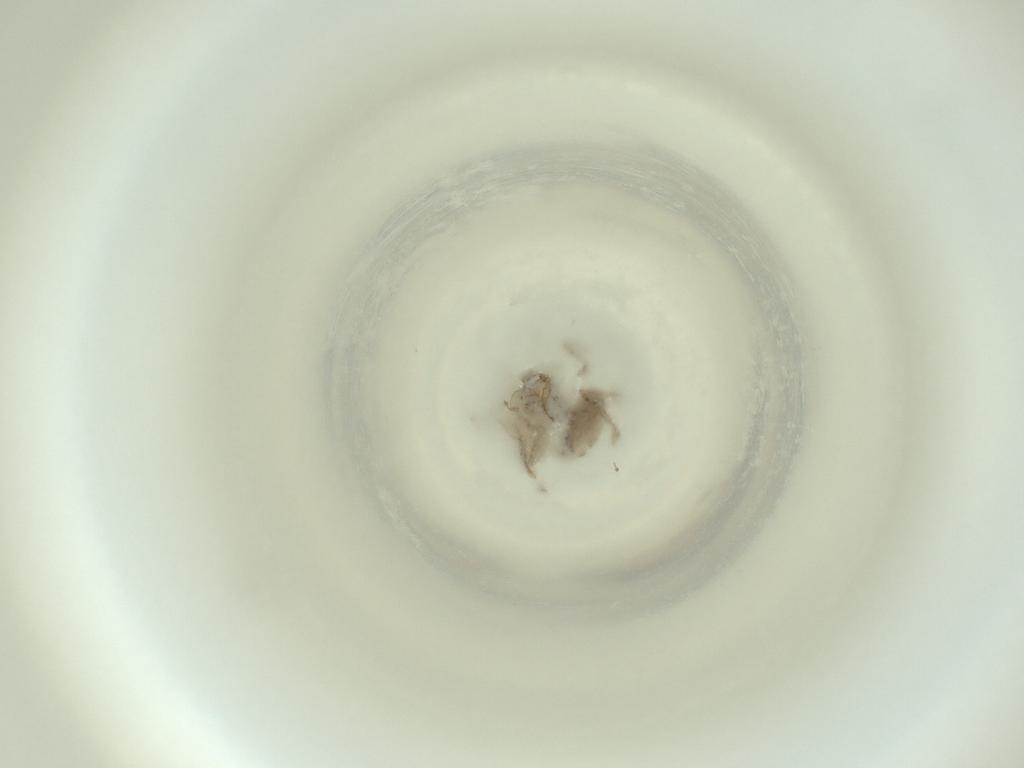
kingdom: Animalia
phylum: Arthropoda
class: Insecta
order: Diptera
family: Cecidomyiidae
